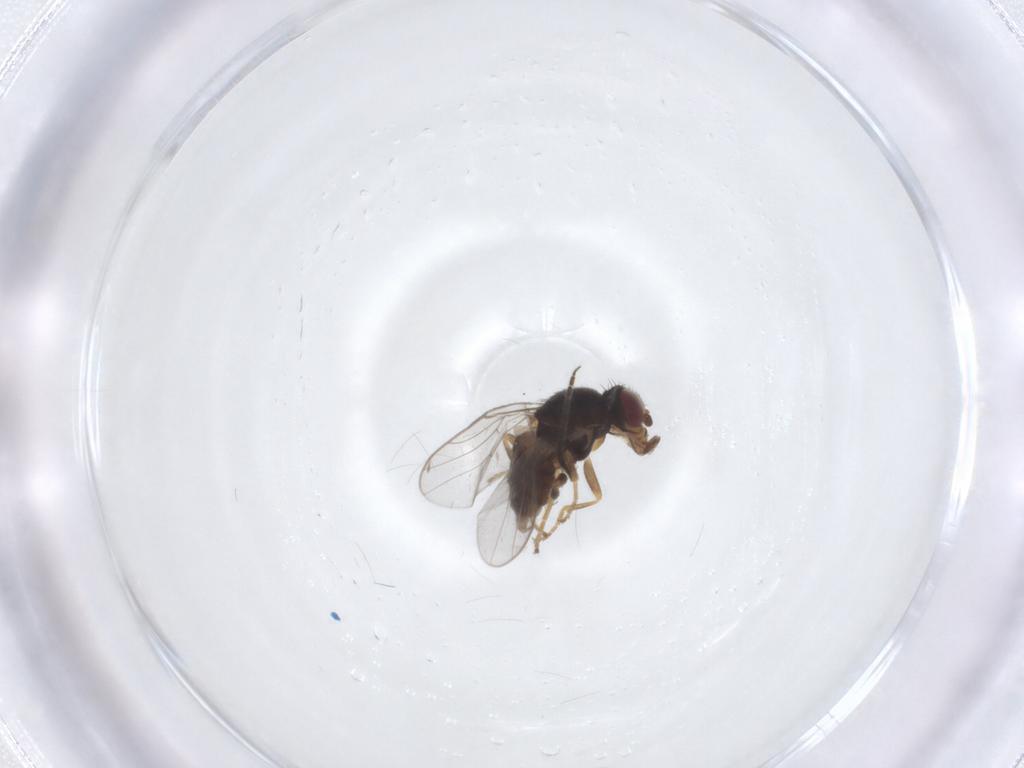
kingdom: Animalia
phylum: Arthropoda
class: Insecta
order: Diptera
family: Chloropidae
